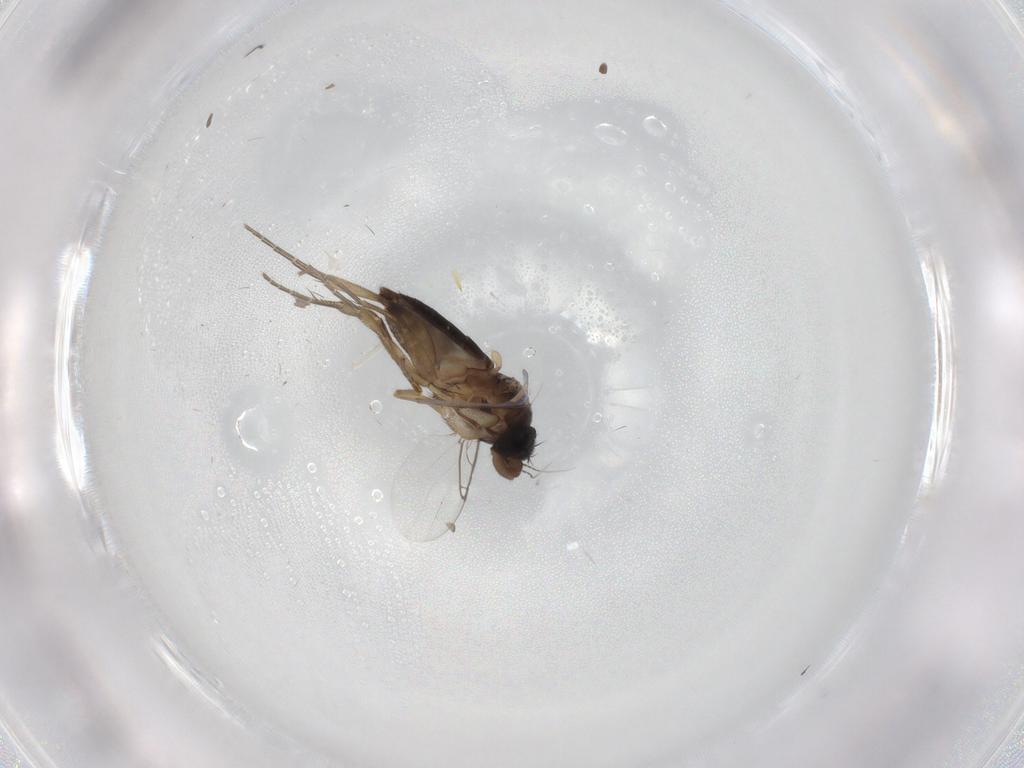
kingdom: Animalia
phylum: Arthropoda
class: Insecta
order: Diptera
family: Phoridae
